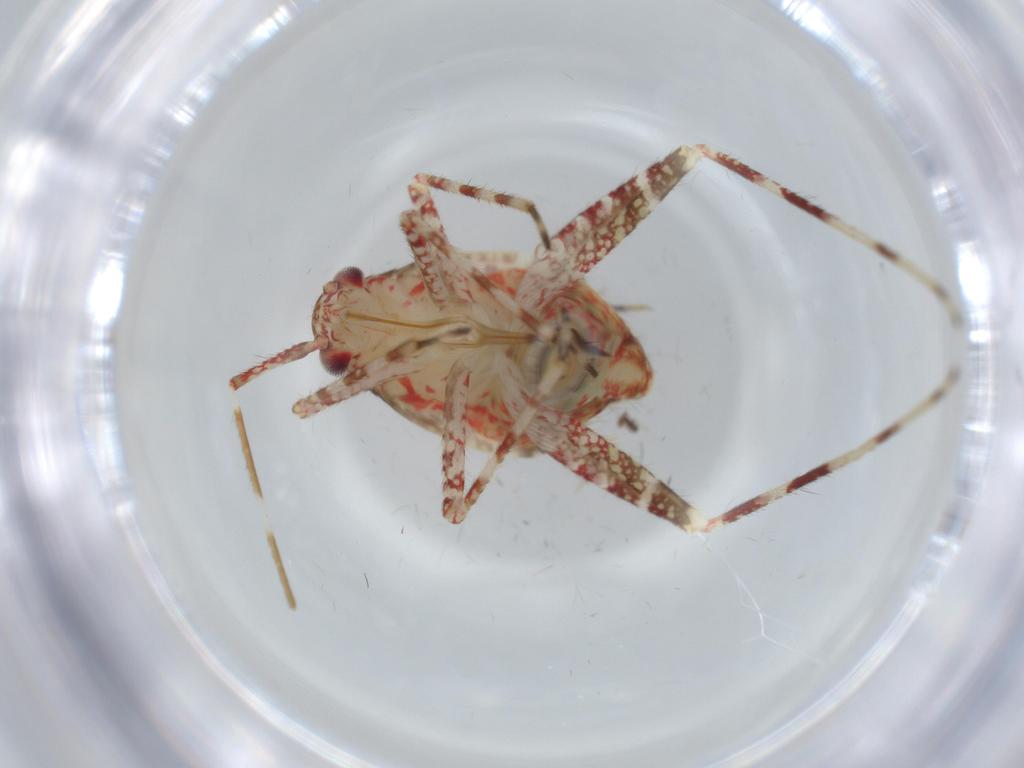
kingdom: Animalia
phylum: Arthropoda
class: Insecta
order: Hemiptera
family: Miridae
